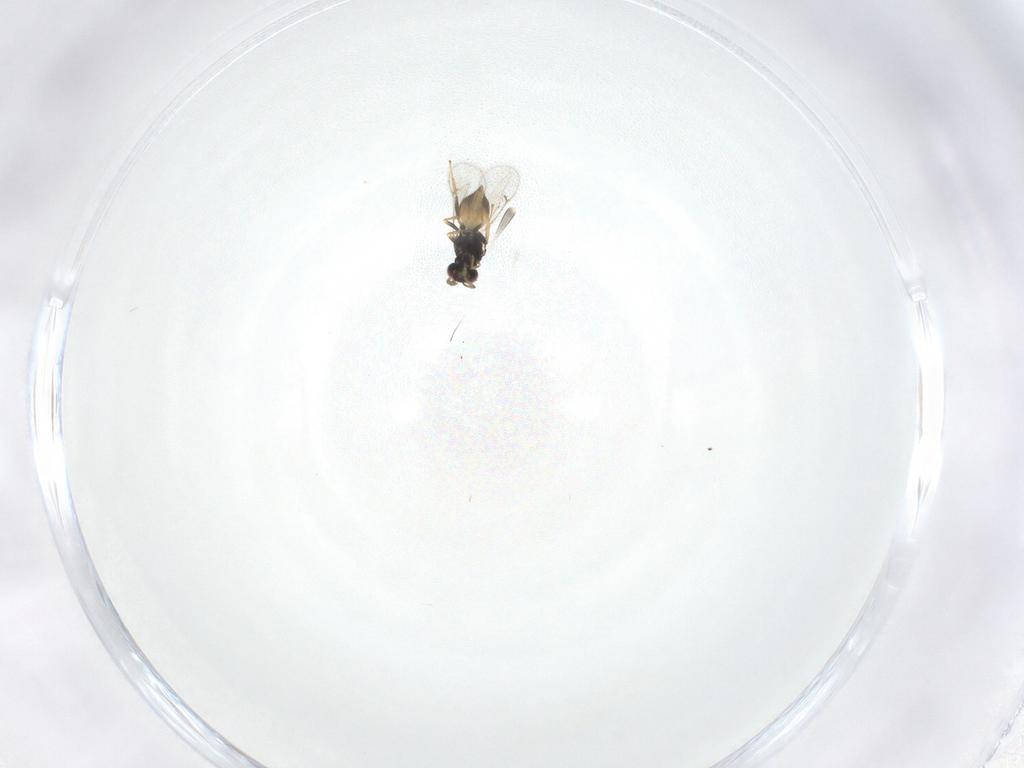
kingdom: Animalia
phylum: Arthropoda
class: Insecta
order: Hymenoptera
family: Eulophidae
